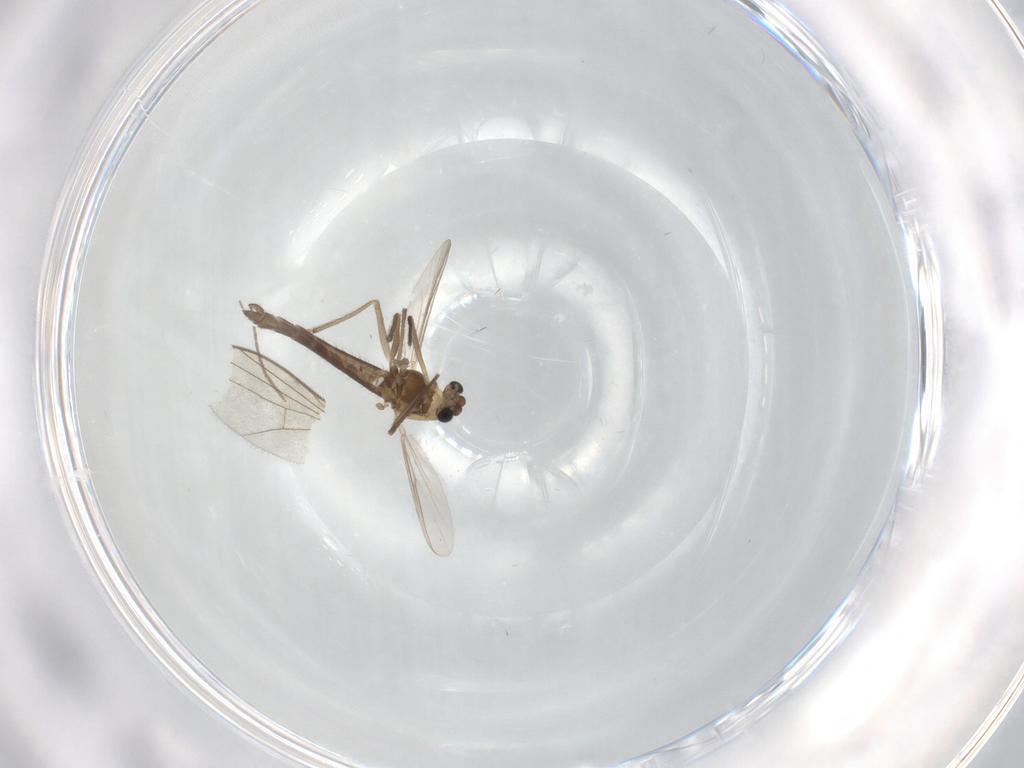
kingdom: Animalia
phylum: Arthropoda
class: Insecta
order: Diptera
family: Chironomidae
